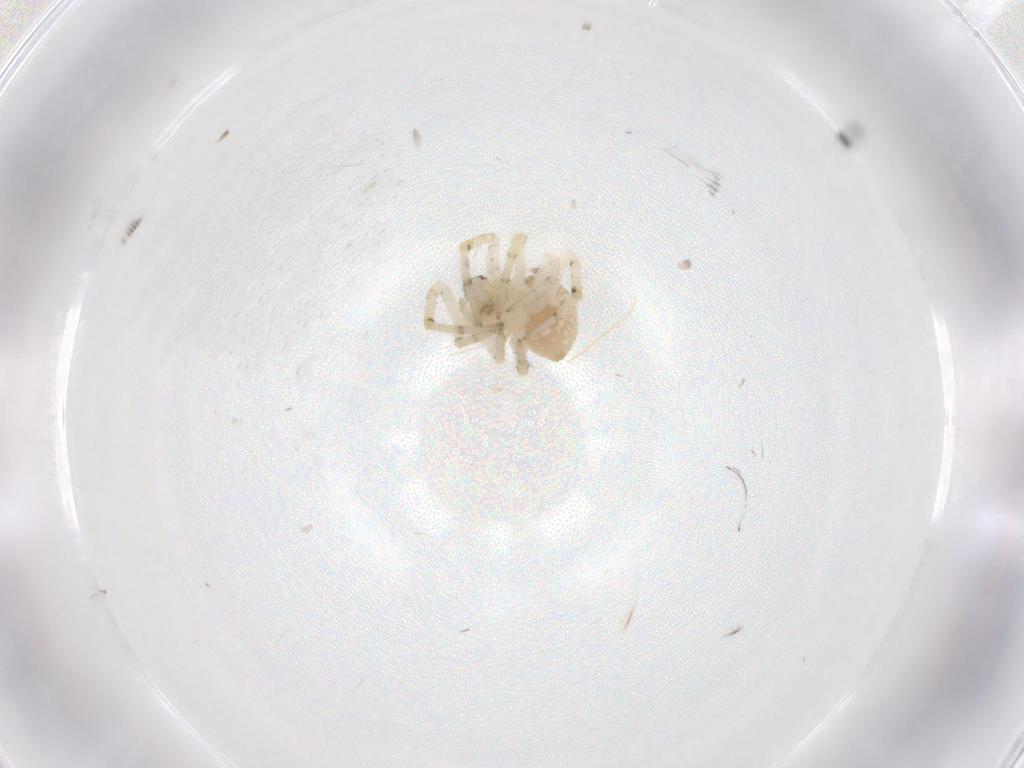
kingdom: Animalia
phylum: Arthropoda
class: Arachnida
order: Araneae
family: Theridiidae
